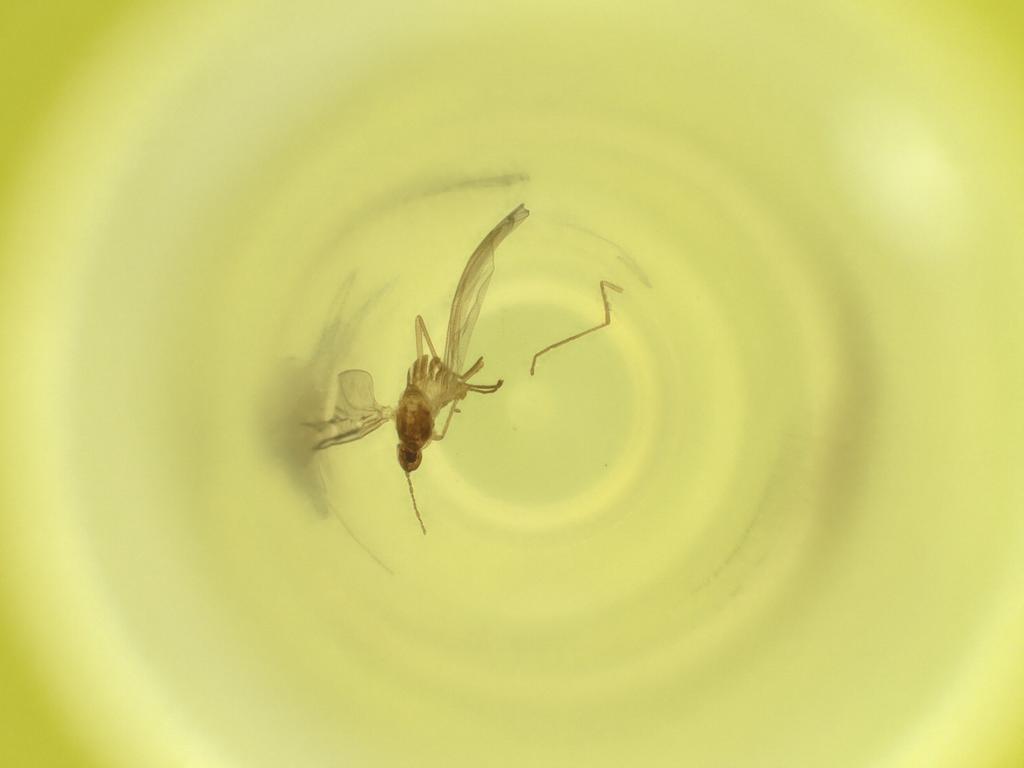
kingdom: Animalia
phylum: Arthropoda
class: Insecta
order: Diptera
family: Cecidomyiidae
